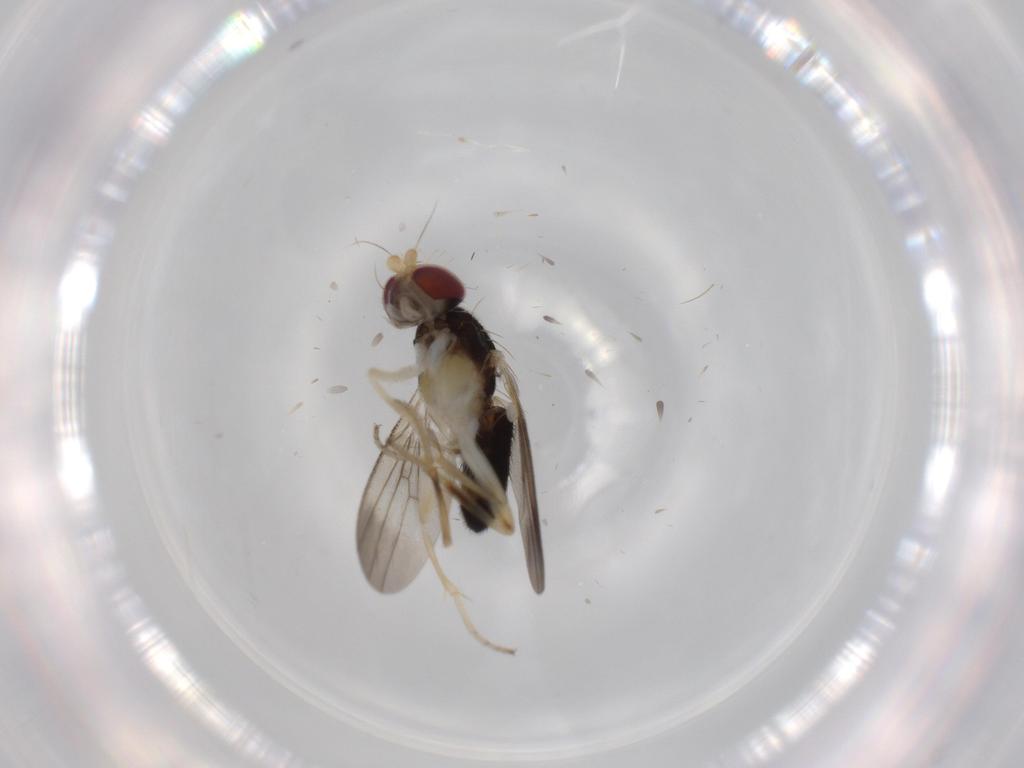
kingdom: Animalia
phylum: Arthropoda
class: Insecta
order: Diptera
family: Clusiidae
